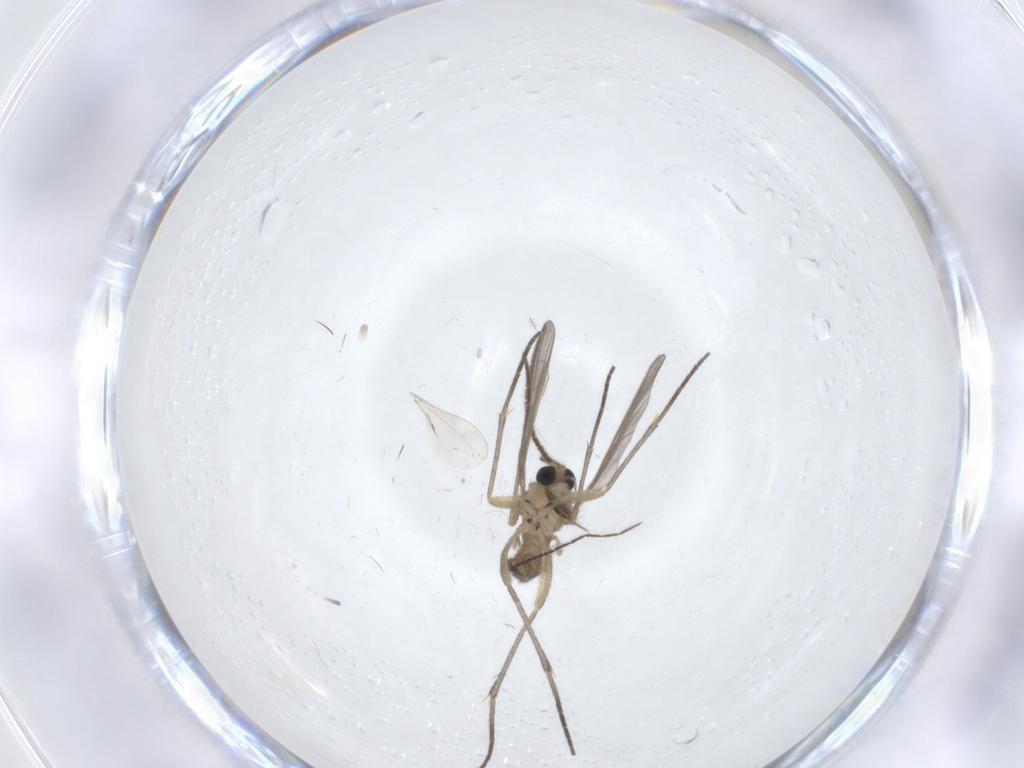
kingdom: Animalia
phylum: Arthropoda
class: Insecta
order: Diptera
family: Sciaridae
